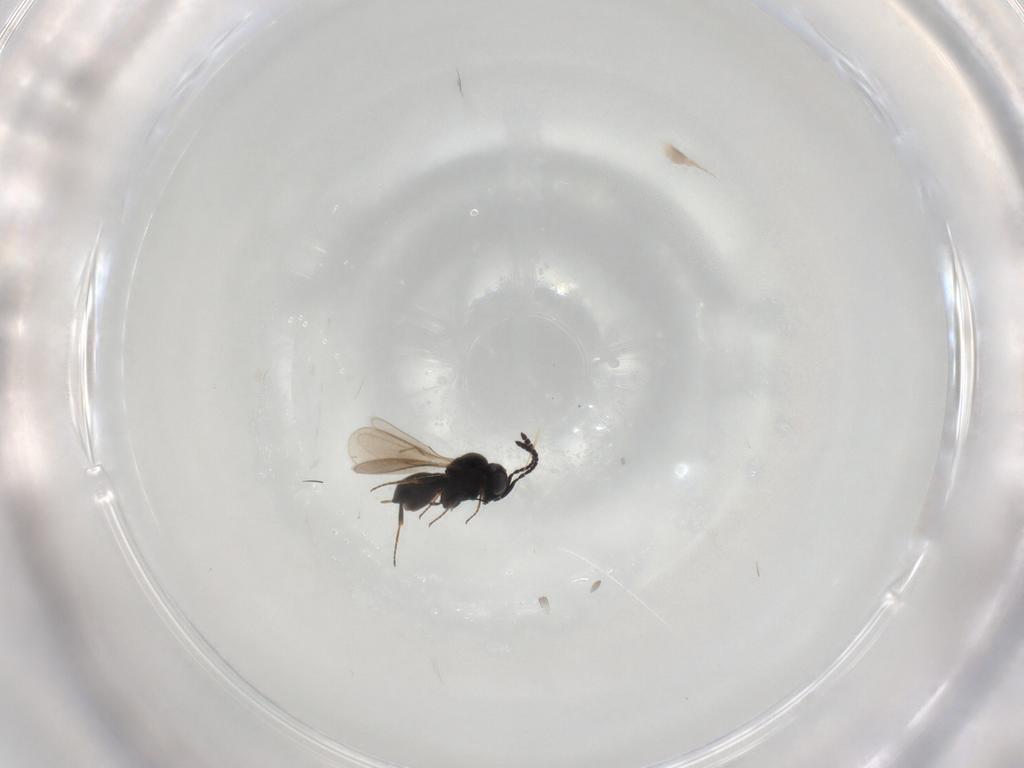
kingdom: Animalia
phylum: Arthropoda
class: Insecta
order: Hymenoptera
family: Scelionidae
